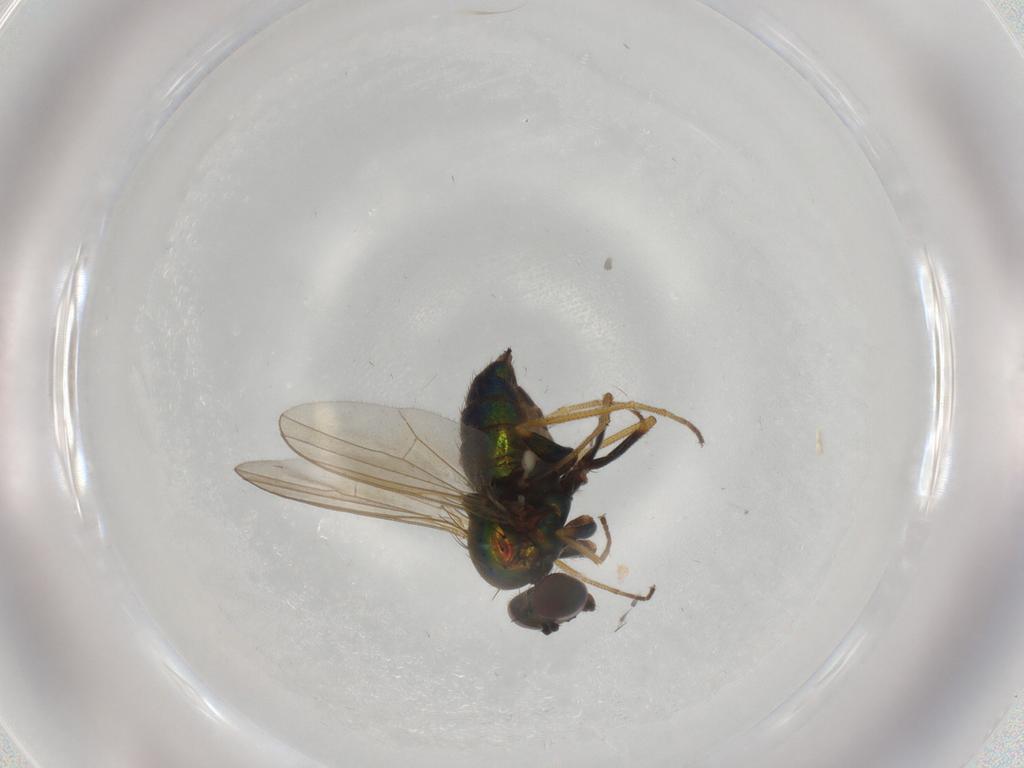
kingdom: Animalia
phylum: Arthropoda
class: Insecta
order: Diptera
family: Dolichopodidae
